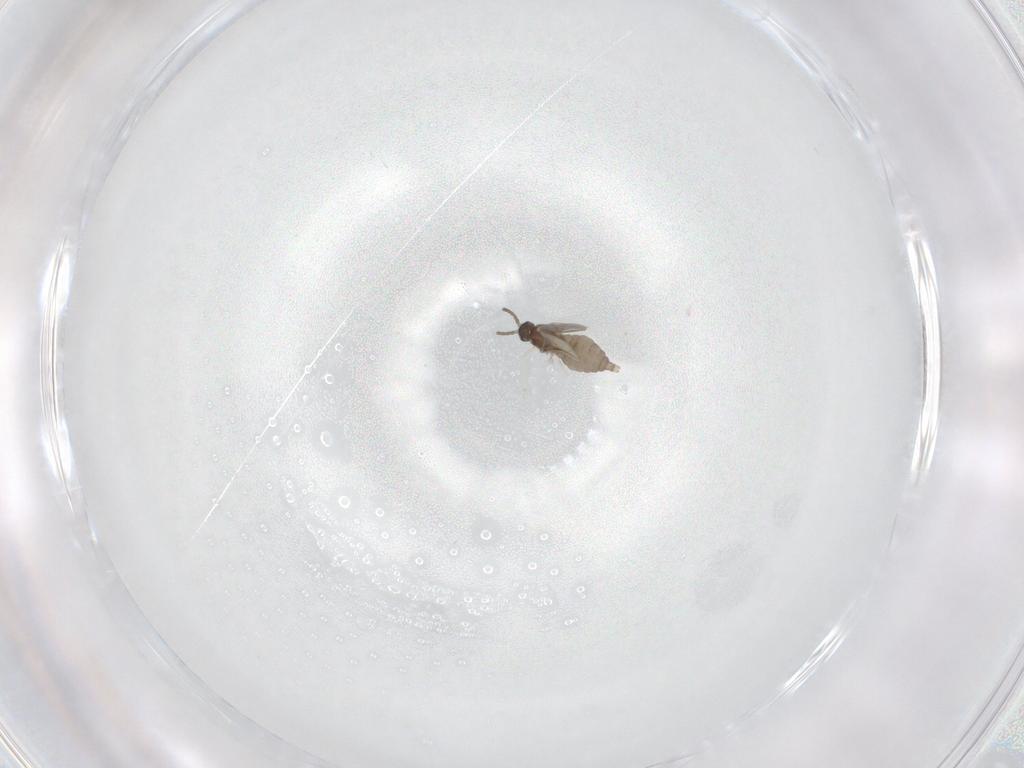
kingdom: Animalia
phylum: Arthropoda
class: Insecta
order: Diptera
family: Cecidomyiidae
